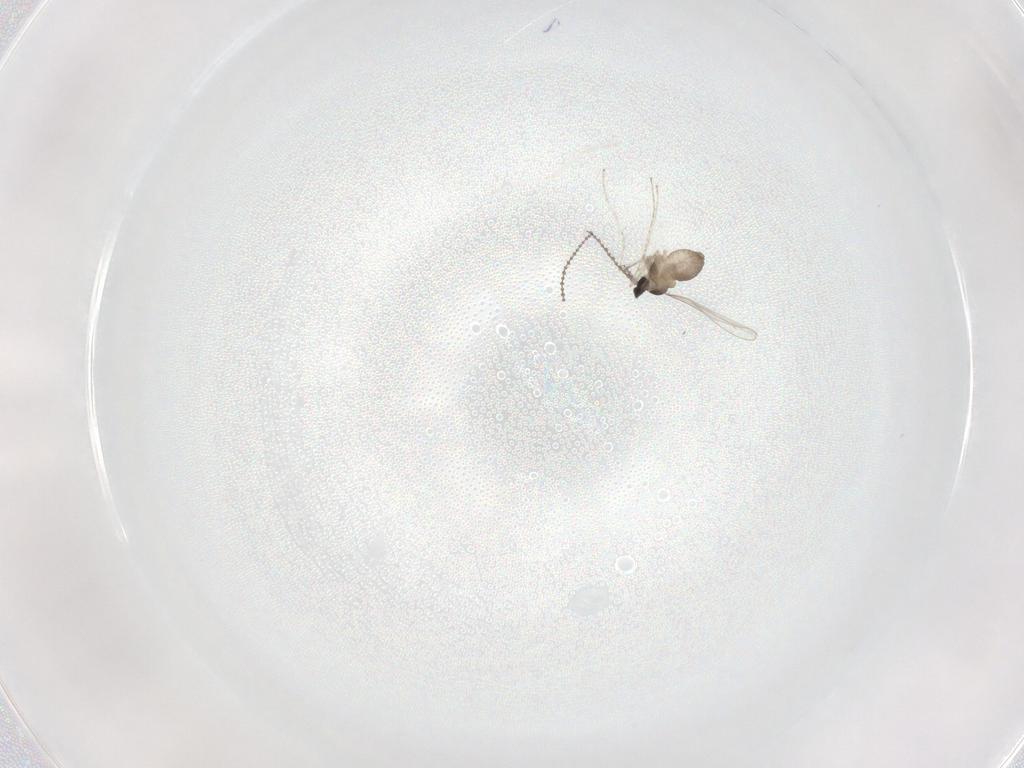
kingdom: Animalia
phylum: Arthropoda
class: Insecta
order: Diptera
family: Cecidomyiidae
